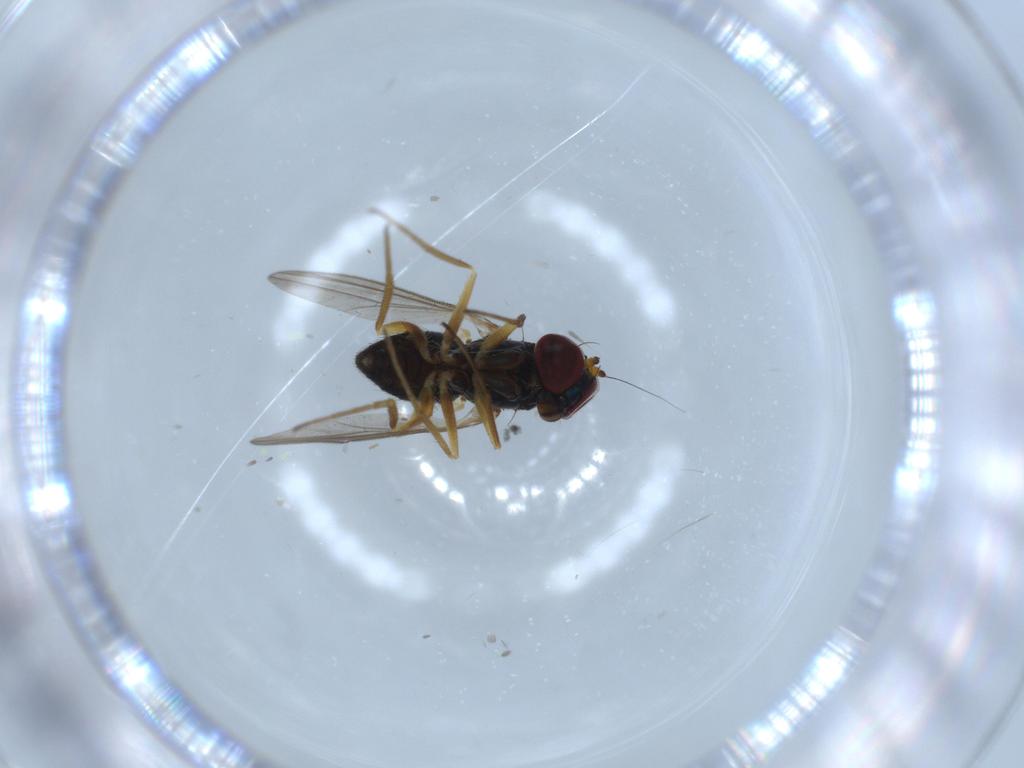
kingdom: Animalia
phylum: Arthropoda
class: Insecta
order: Diptera
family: Dolichopodidae
